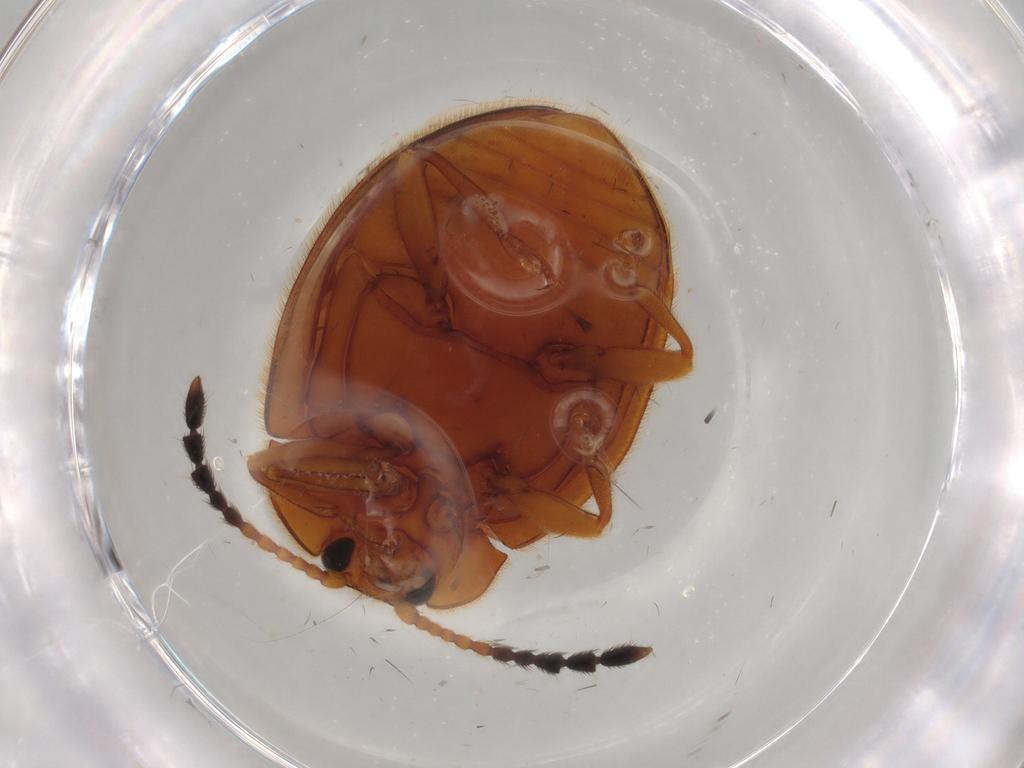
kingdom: Animalia
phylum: Arthropoda
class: Insecta
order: Coleoptera
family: Endomychidae
